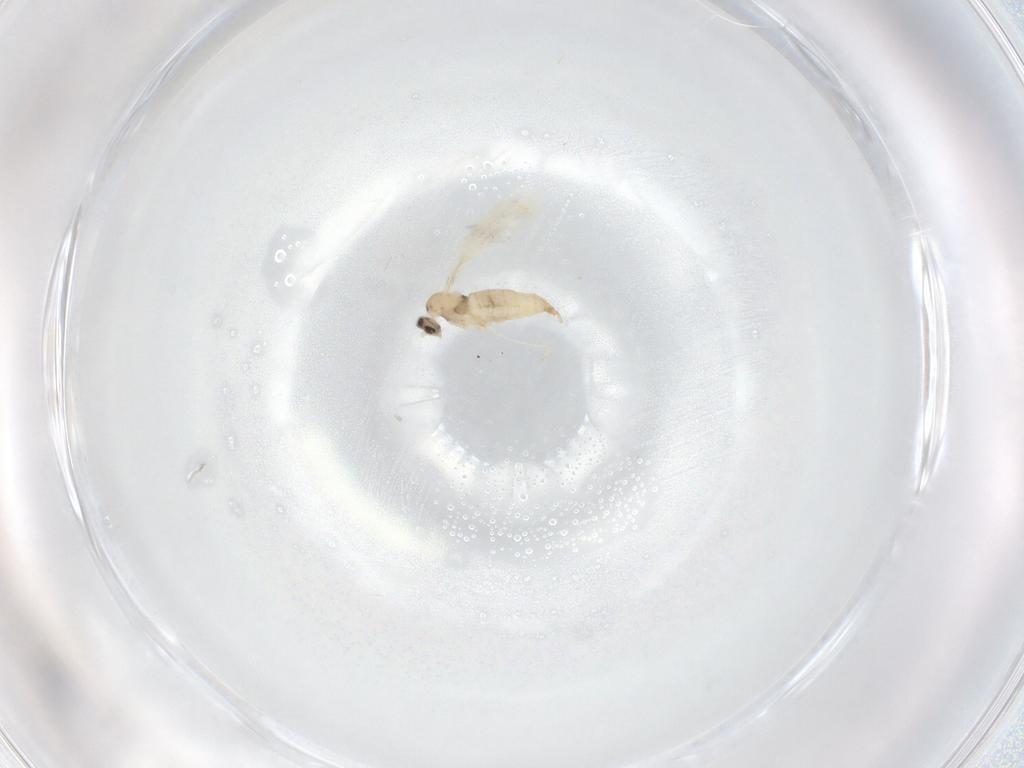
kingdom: Animalia
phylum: Arthropoda
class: Insecta
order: Diptera
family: Cecidomyiidae
